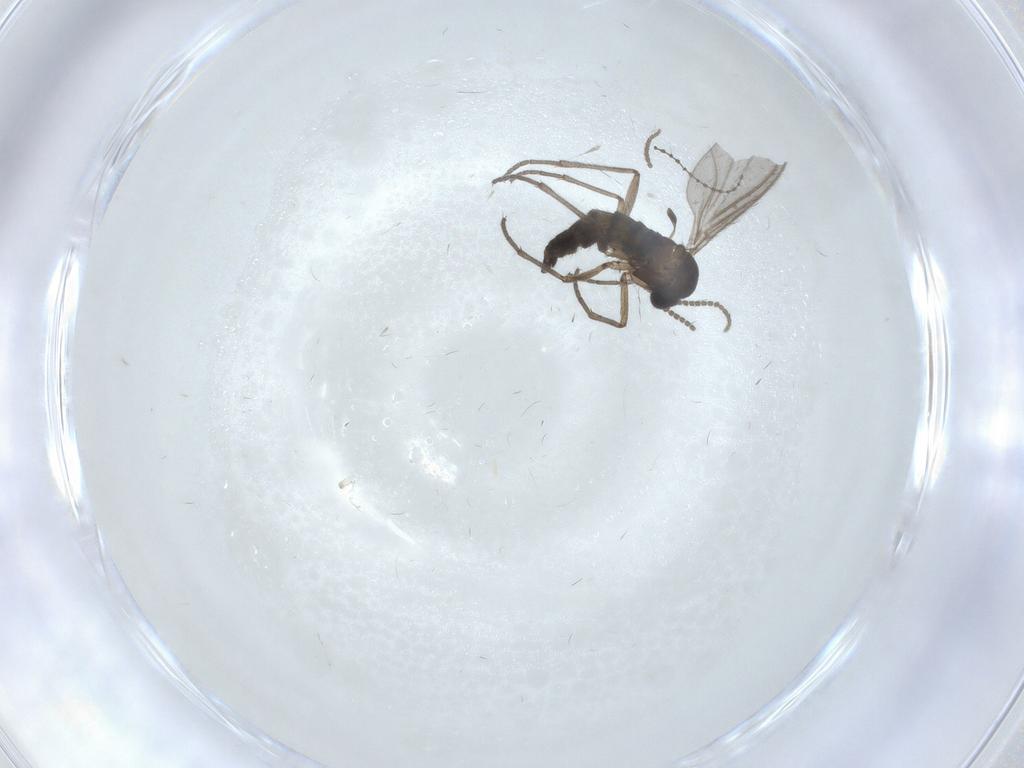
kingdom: Animalia
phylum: Arthropoda
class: Insecta
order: Diptera
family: Sciaridae
